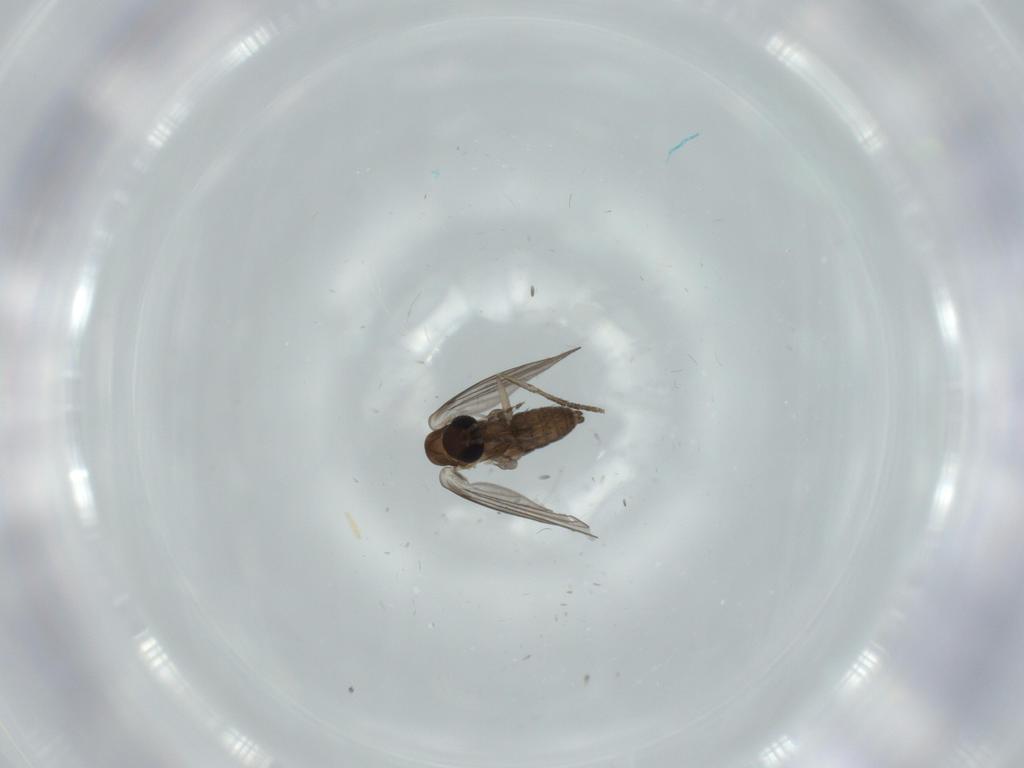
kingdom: Animalia
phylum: Arthropoda
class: Insecta
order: Diptera
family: Psychodidae
